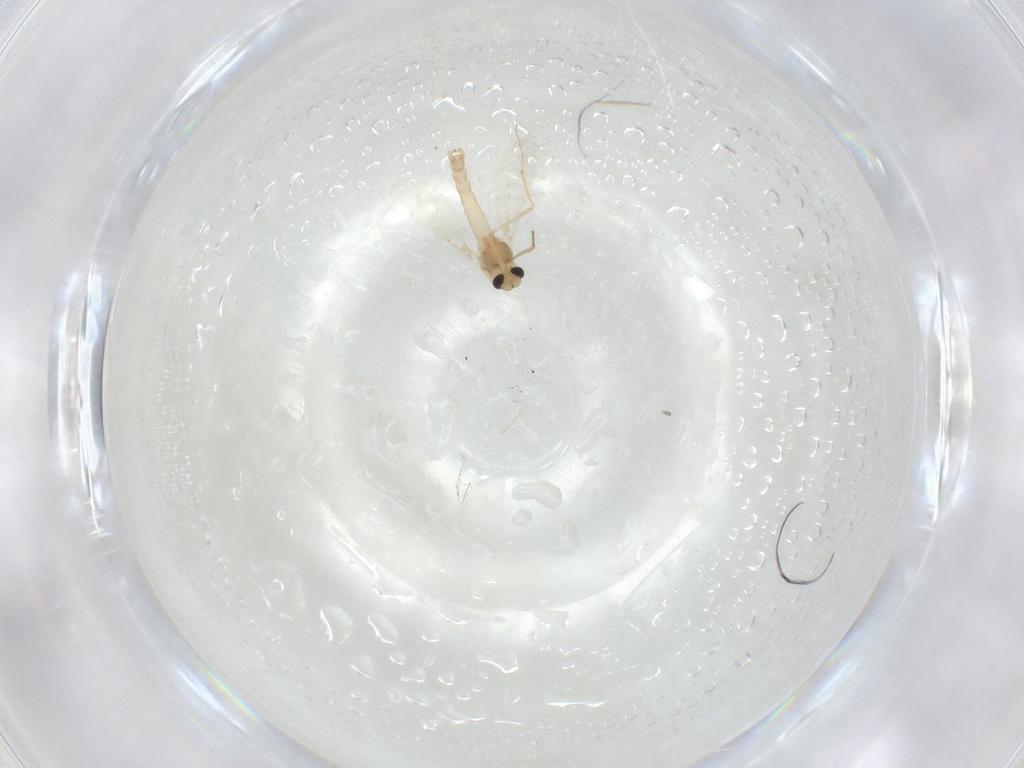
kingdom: Animalia
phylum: Arthropoda
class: Insecta
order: Diptera
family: Chironomidae
